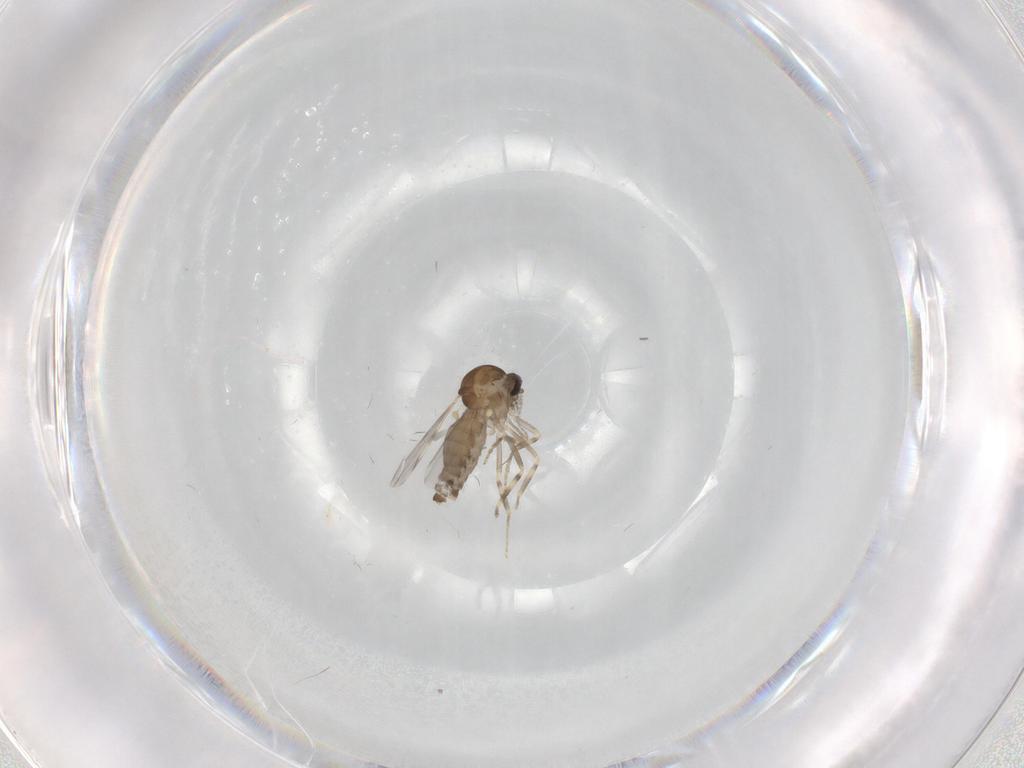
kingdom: Animalia
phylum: Arthropoda
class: Insecta
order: Diptera
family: Ceratopogonidae
